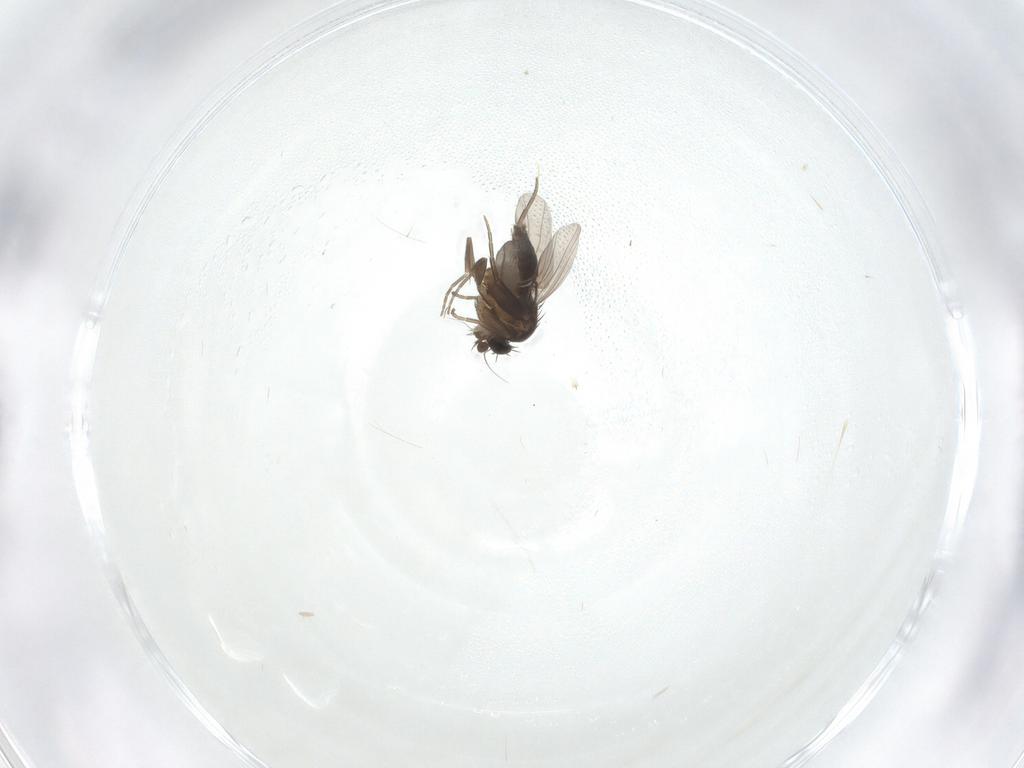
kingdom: Animalia
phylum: Arthropoda
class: Insecta
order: Diptera
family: Phoridae
